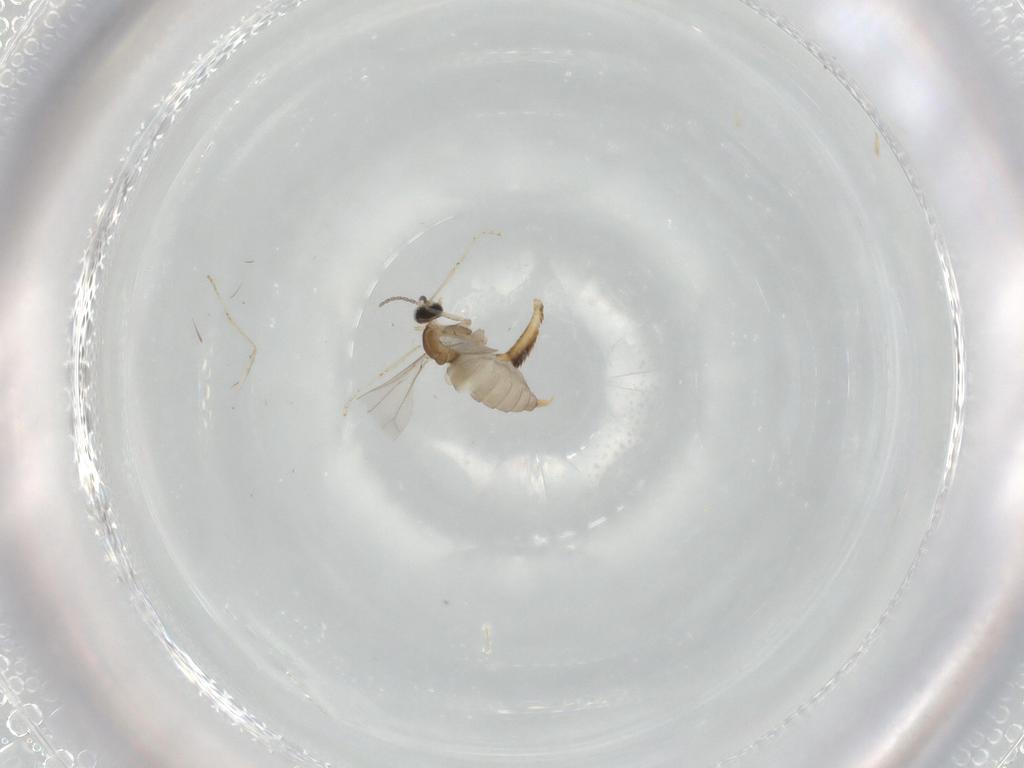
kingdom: Animalia
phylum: Arthropoda
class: Insecta
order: Diptera
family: Cecidomyiidae
